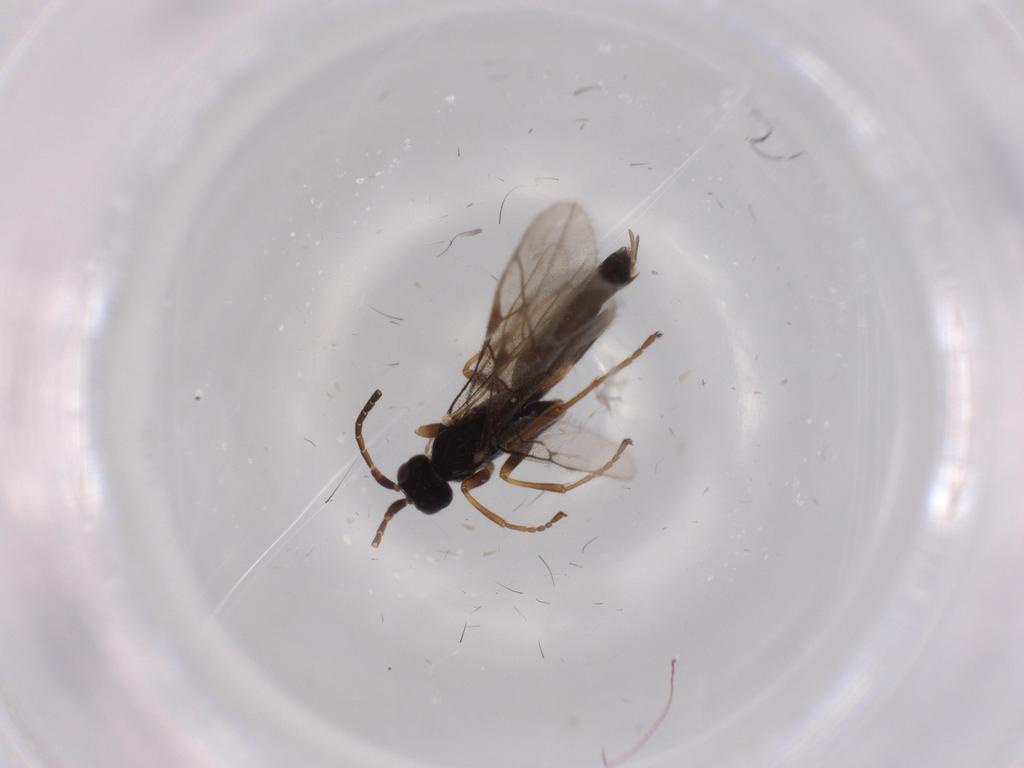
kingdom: Animalia
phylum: Arthropoda
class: Insecta
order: Hymenoptera
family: Ichneumonidae
